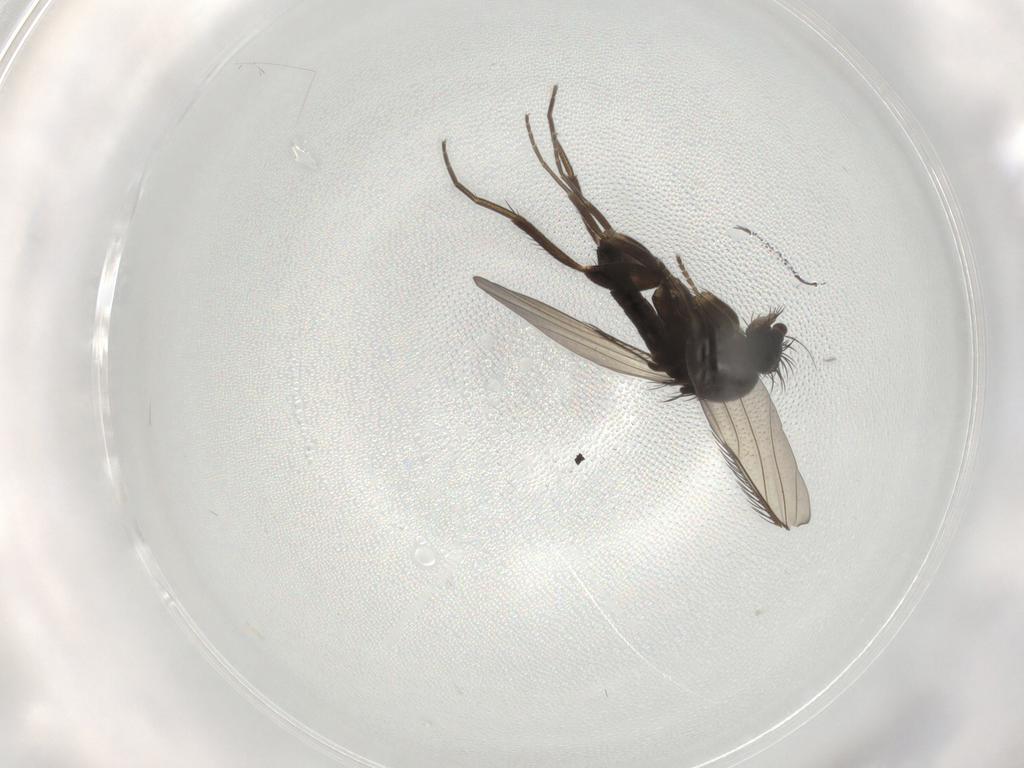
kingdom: Animalia
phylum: Arthropoda
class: Insecta
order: Diptera
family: Phoridae
